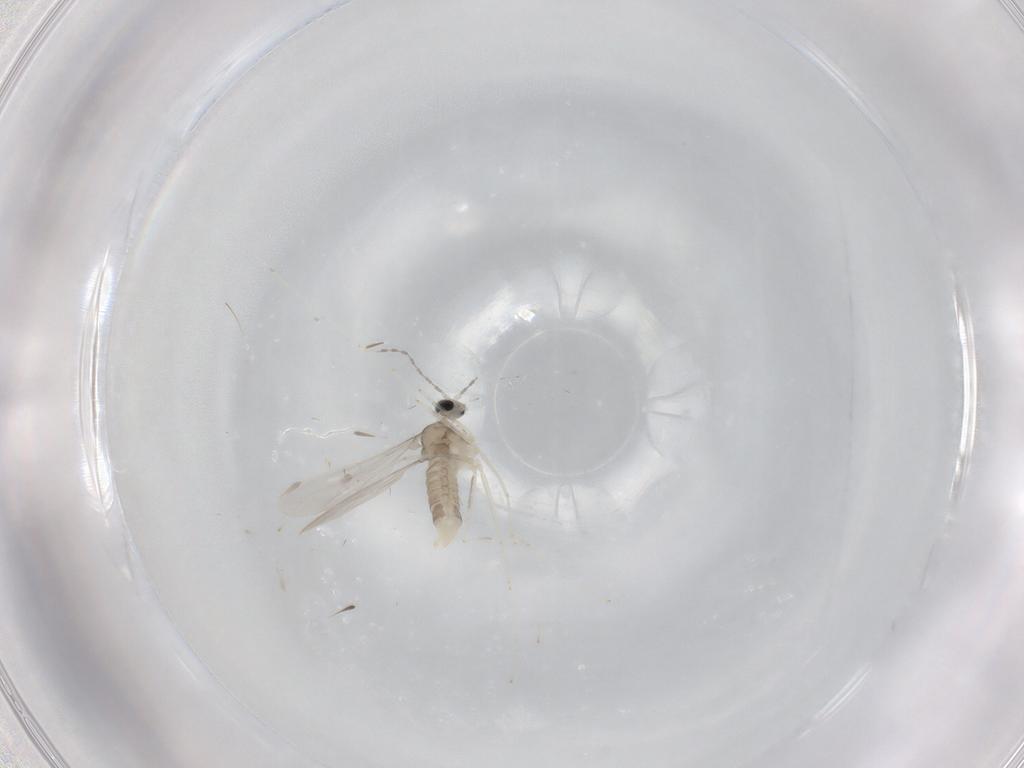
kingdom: Animalia
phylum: Arthropoda
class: Insecta
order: Diptera
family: Cecidomyiidae
